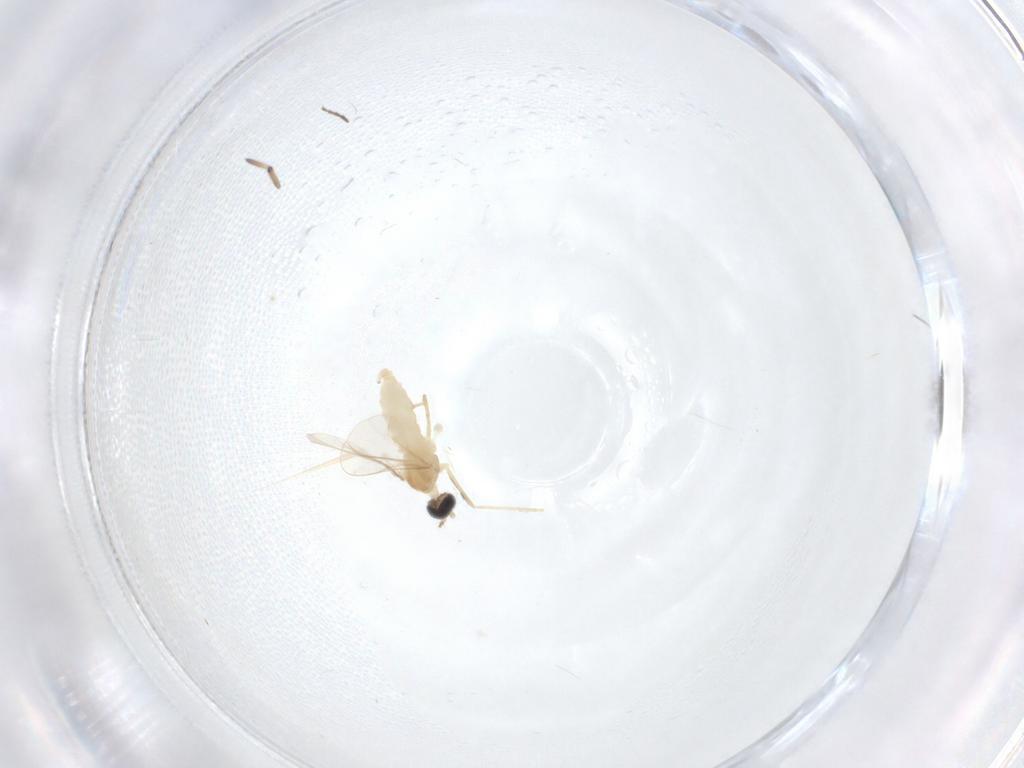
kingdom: Animalia
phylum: Arthropoda
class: Insecta
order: Diptera
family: Cecidomyiidae
